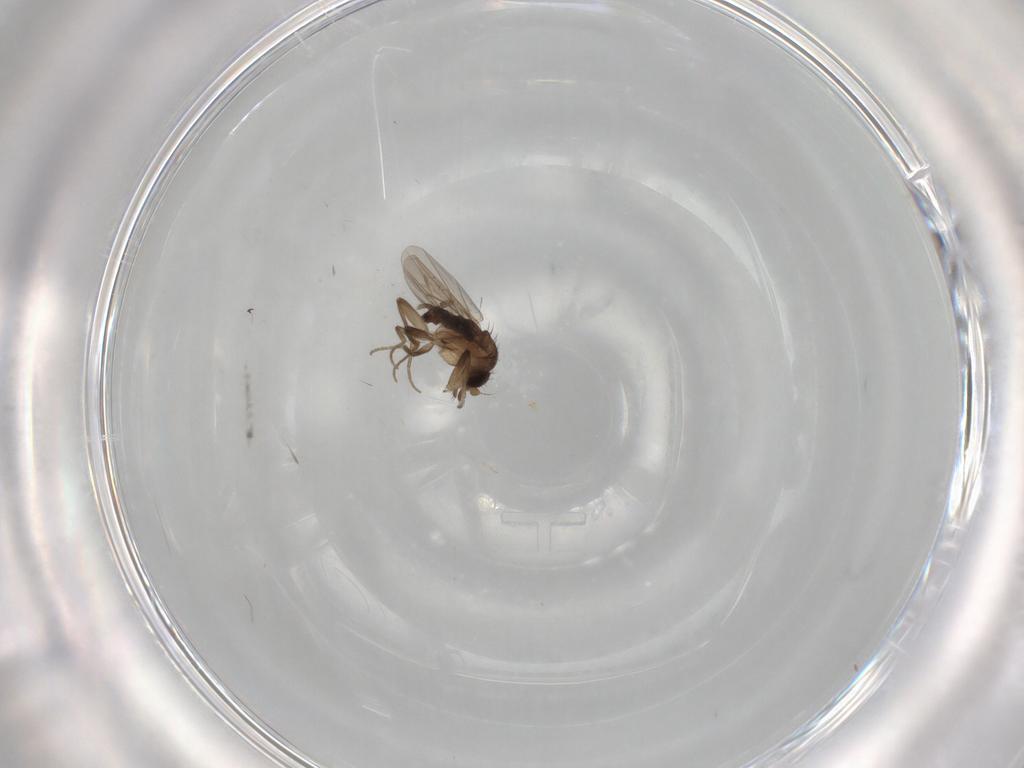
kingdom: Animalia
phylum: Arthropoda
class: Insecta
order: Diptera
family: Phoridae
